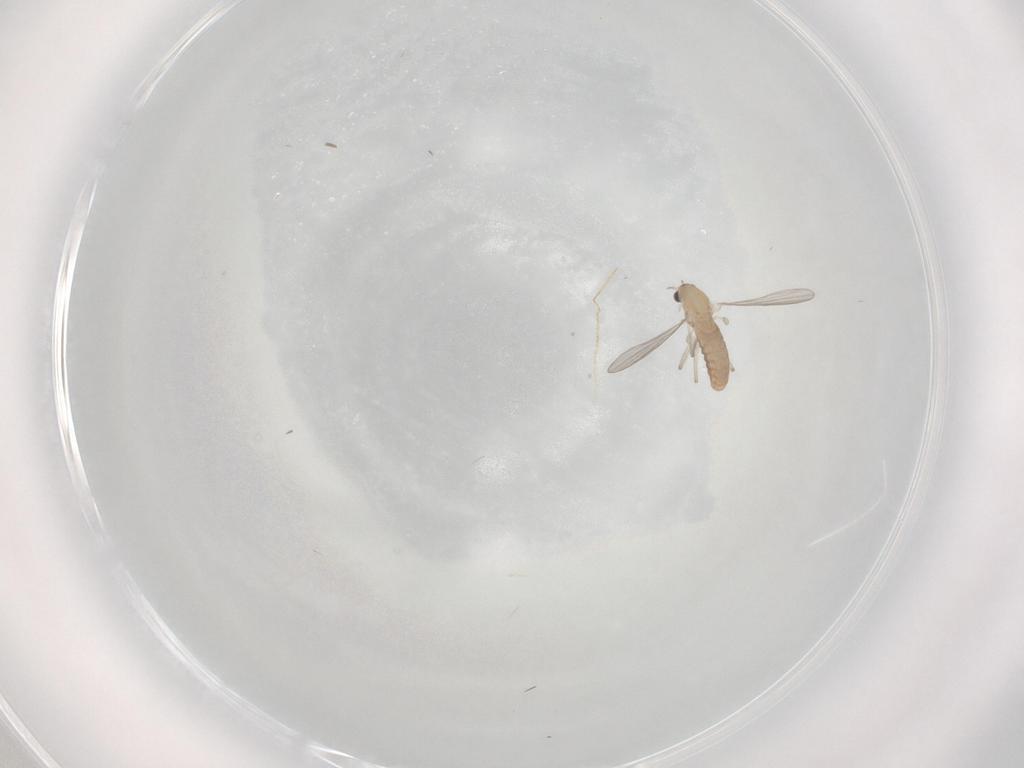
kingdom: Animalia
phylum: Arthropoda
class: Insecta
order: Diptera
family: Chironomidae
